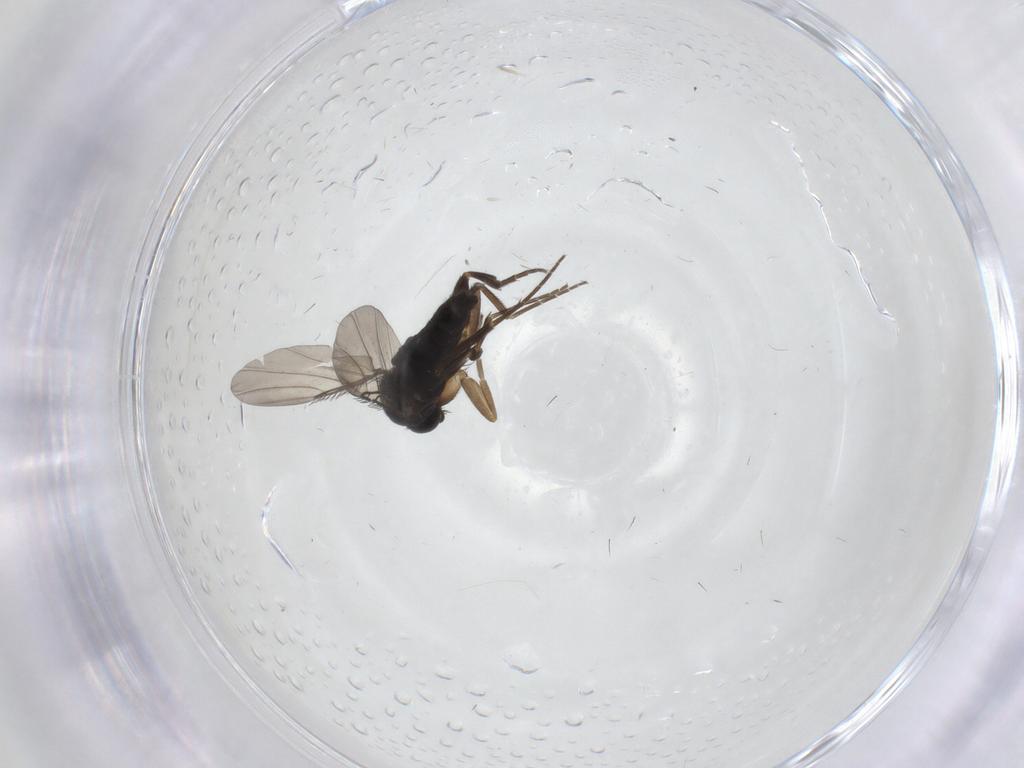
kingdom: Animalia
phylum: Arthropoda
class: Insecta
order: Diptera
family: Phoridae
